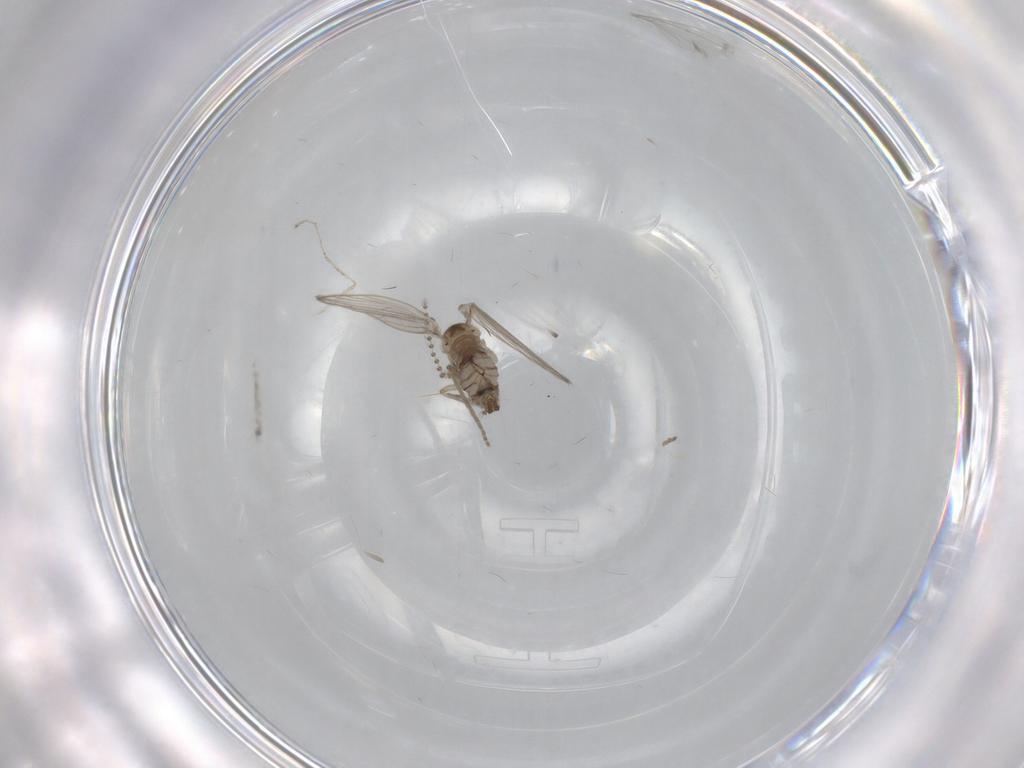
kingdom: Animalia
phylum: Arthropoda
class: Insecta
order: Diptera
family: Psychodidae
